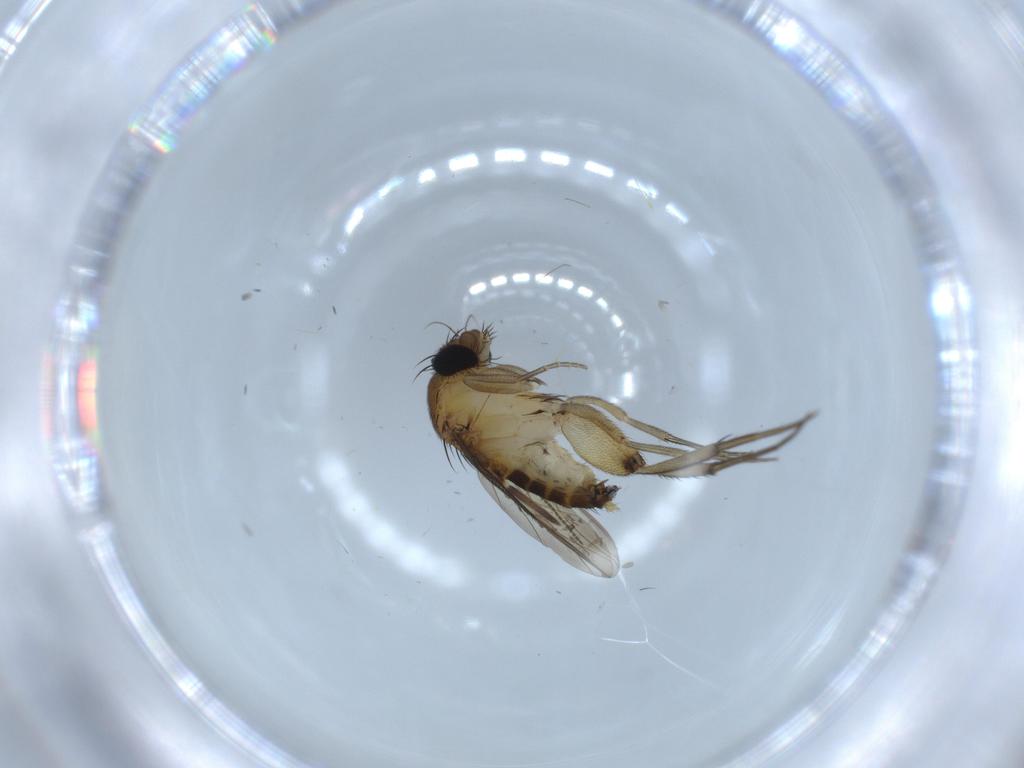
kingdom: Animalia
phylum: Arthropoda
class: Insecta
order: Diptera
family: Phoridae
